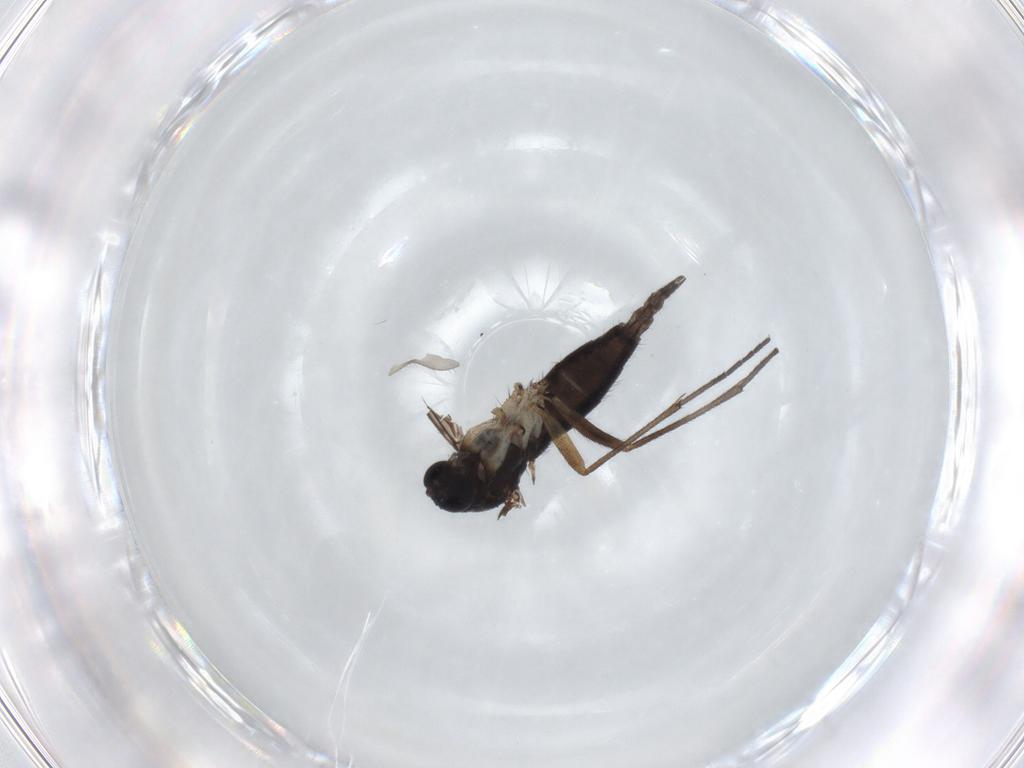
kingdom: Animalia
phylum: Arthropoda
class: Insecta
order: Diptera
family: Sciaridae
